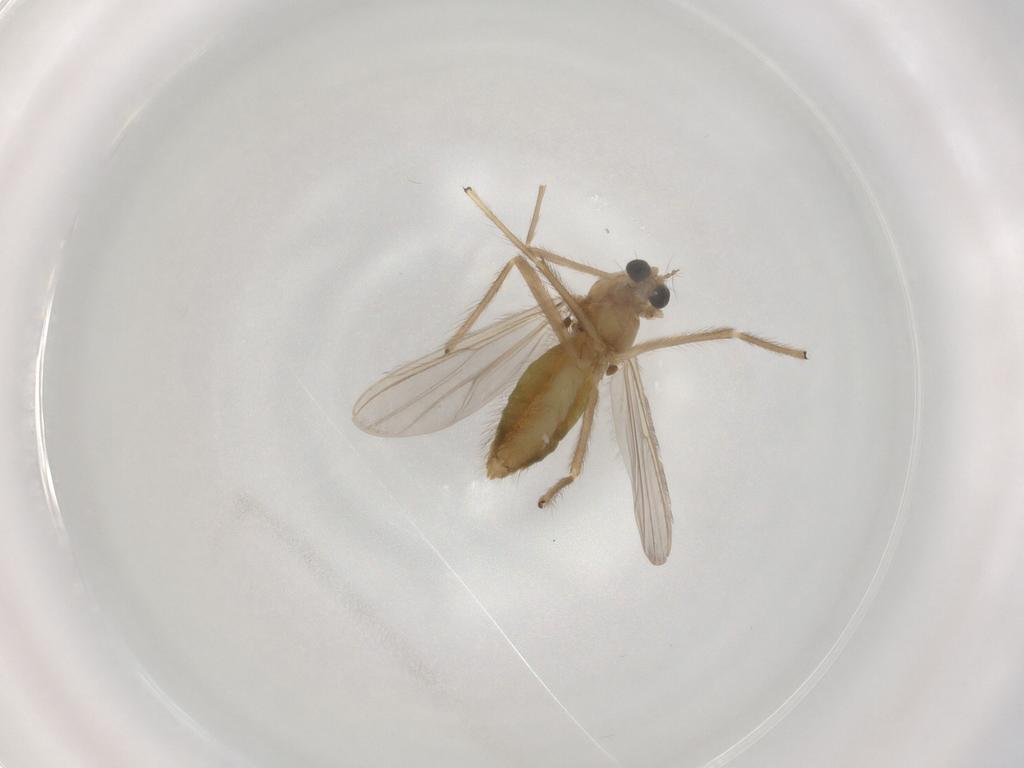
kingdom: Animalia
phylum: Arthropoda
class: Insecta
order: Diptera
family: Chironomidae
